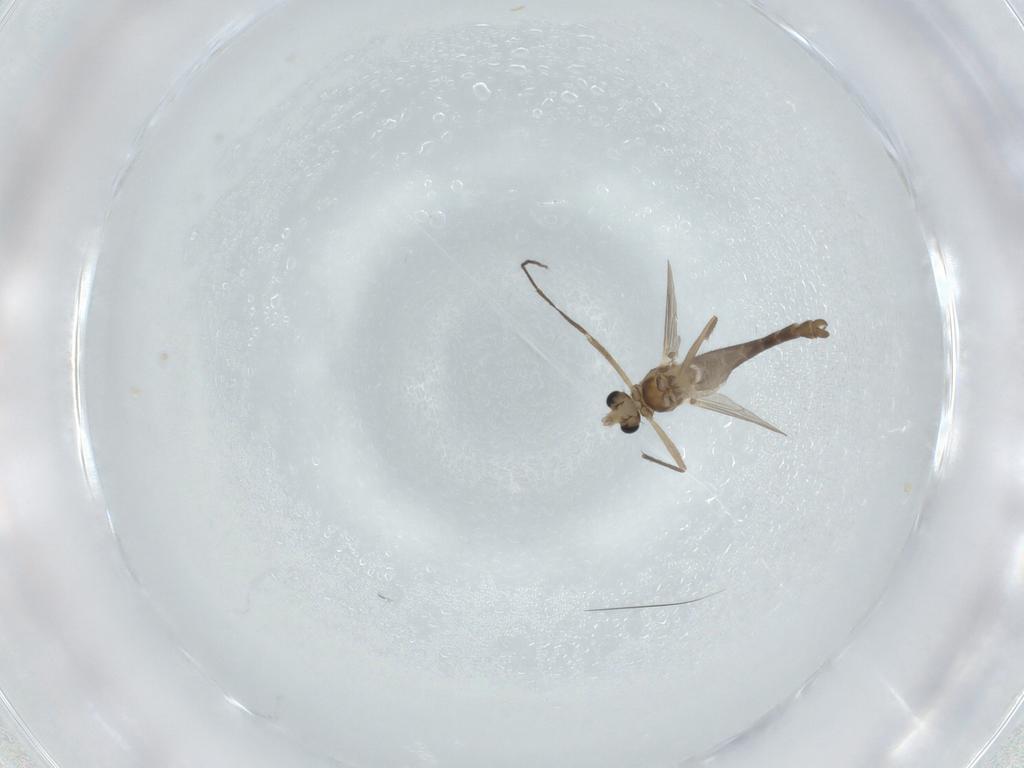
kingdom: Animalia
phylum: Arthropoda
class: Insecta
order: Diptera
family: Chironomidae
